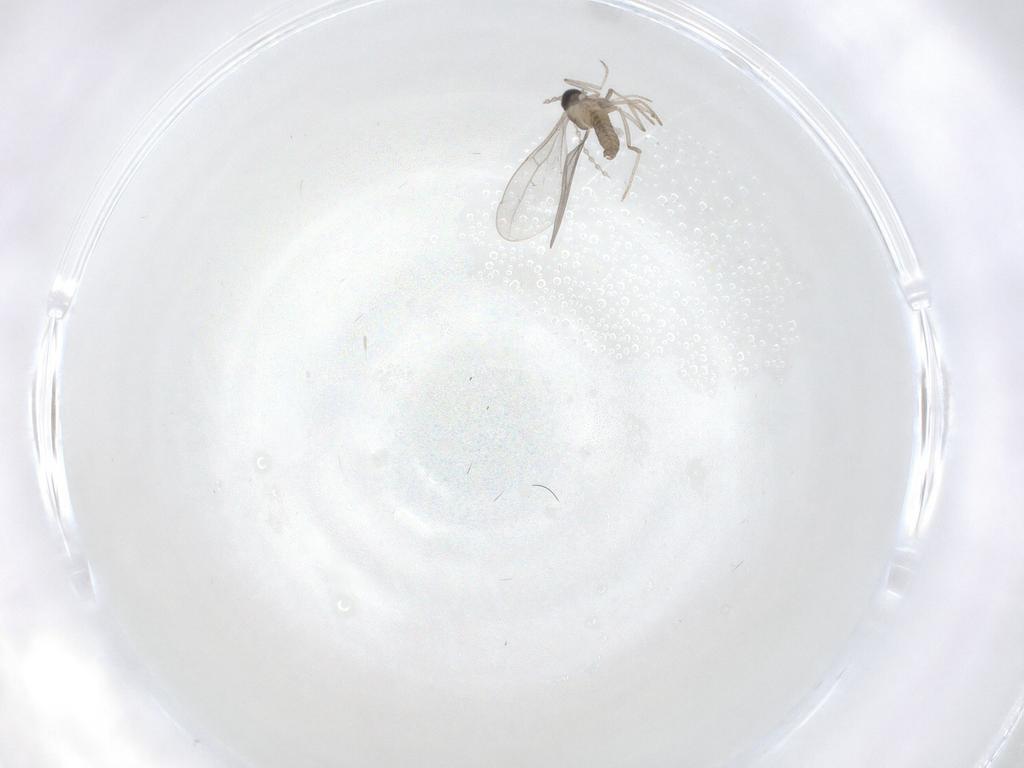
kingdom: Animalia
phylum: Arthropoda
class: Insecta
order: Diptera
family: Cecidomyiidae
